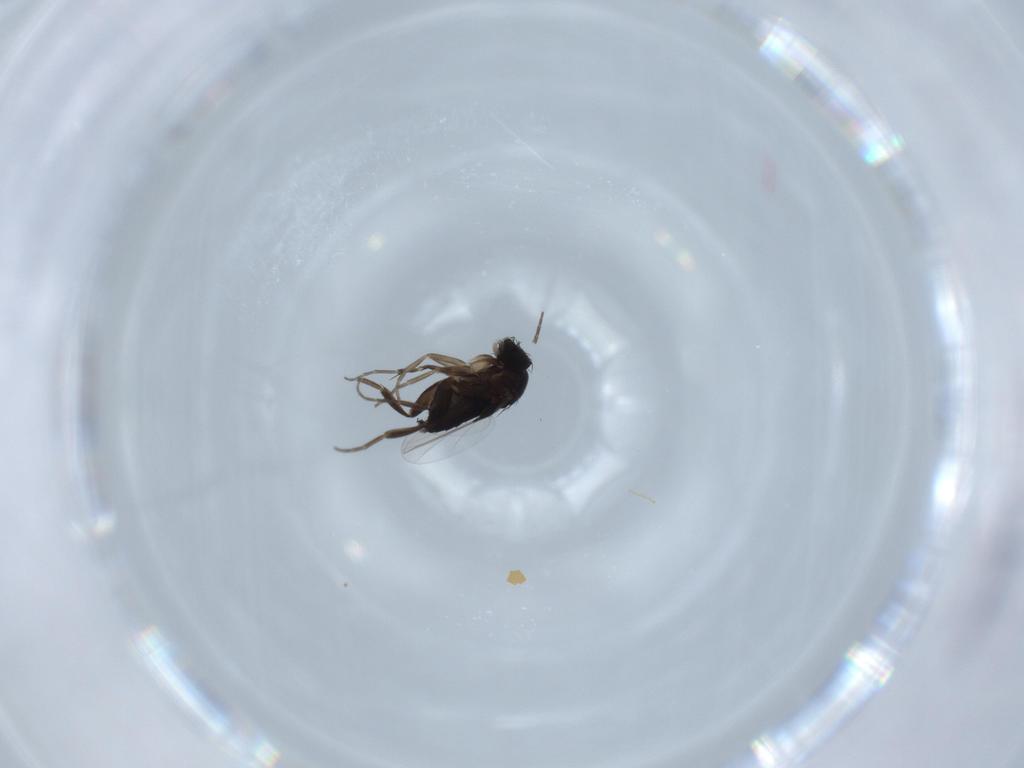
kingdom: Animalia
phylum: Arthropoda
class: Insecta
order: Diptera
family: Phoridae
